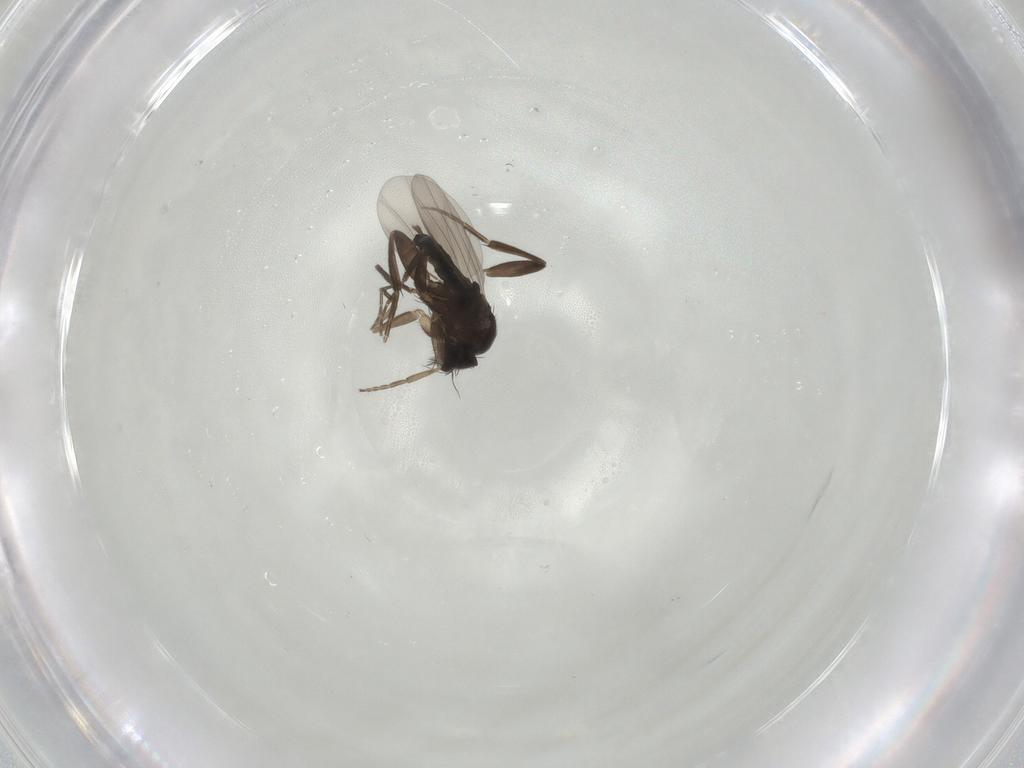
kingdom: Animalia
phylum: Arthropoda
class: Insecta
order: Diptera
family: Phoridae
